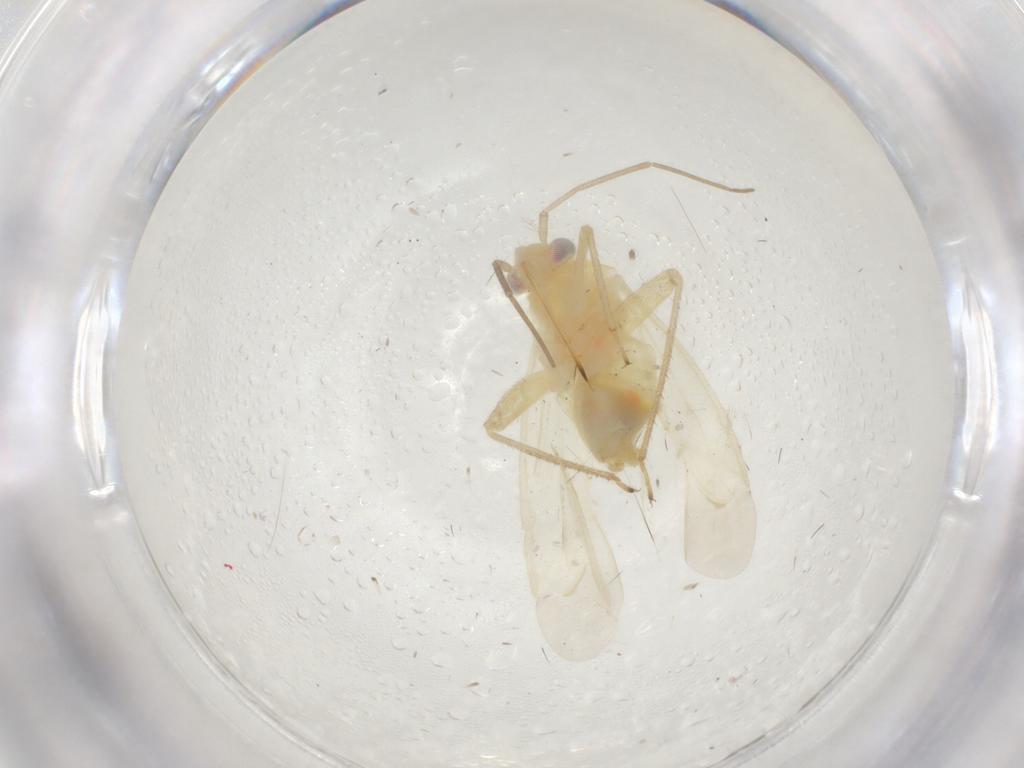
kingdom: Animalia
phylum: Arthropoda
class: Insecta
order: Hemiptera
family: Miridae
